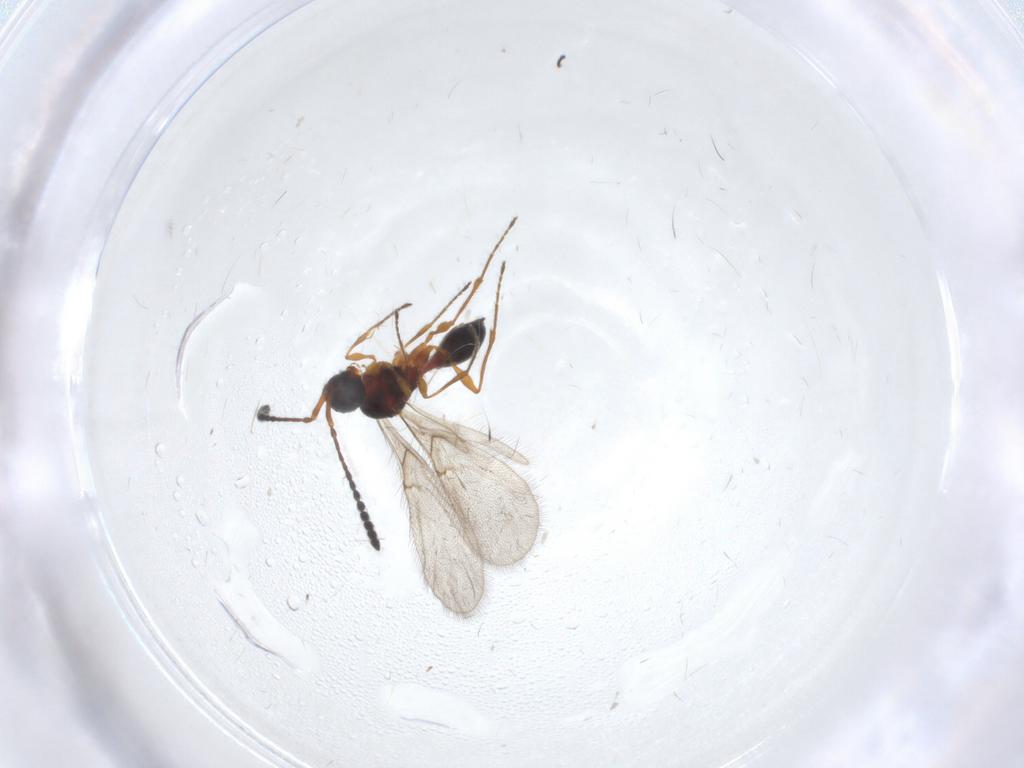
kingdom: Animalia
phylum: Arthropoda
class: Insecta
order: Hymenoptera
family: Diapriidae
